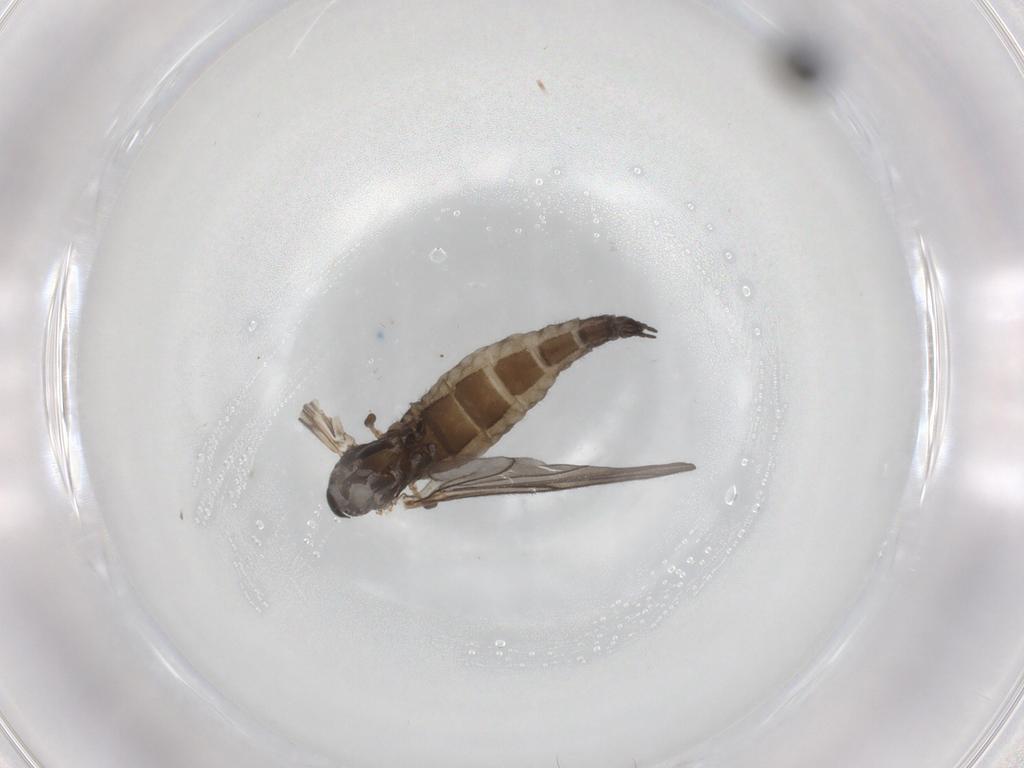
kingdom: Animalia
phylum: Arthropoda
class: Insecta
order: Diptera
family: Sciaridae
